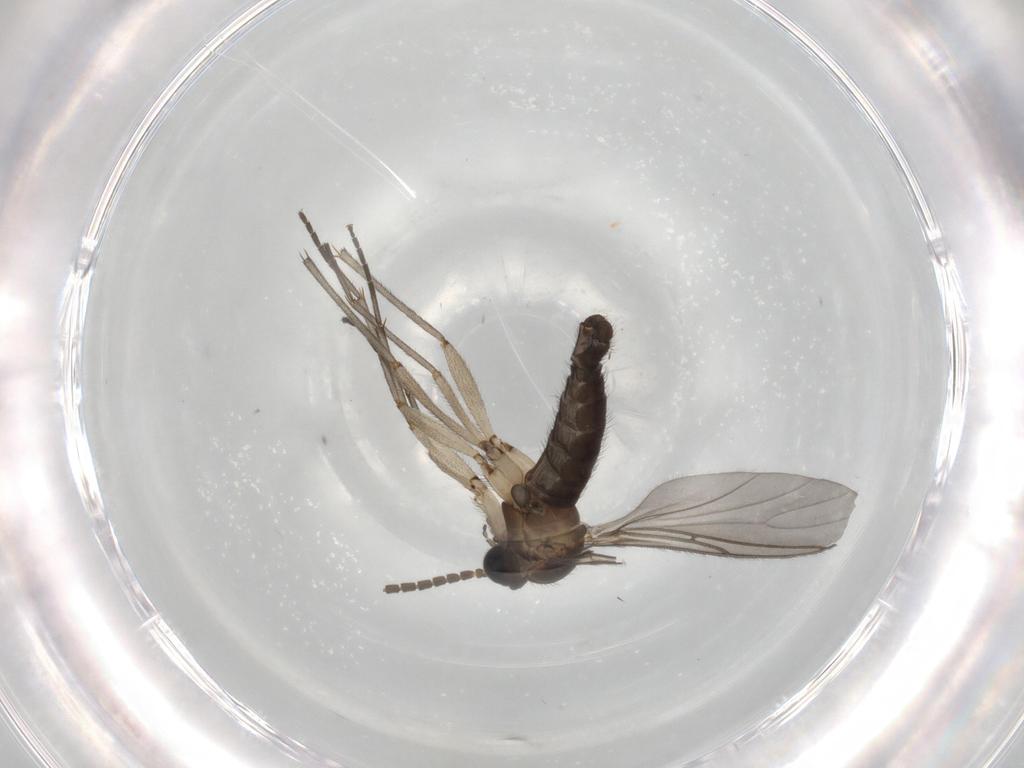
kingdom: Animalia
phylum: Arthropoda
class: Insecta
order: Diptera
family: Sciaridae
